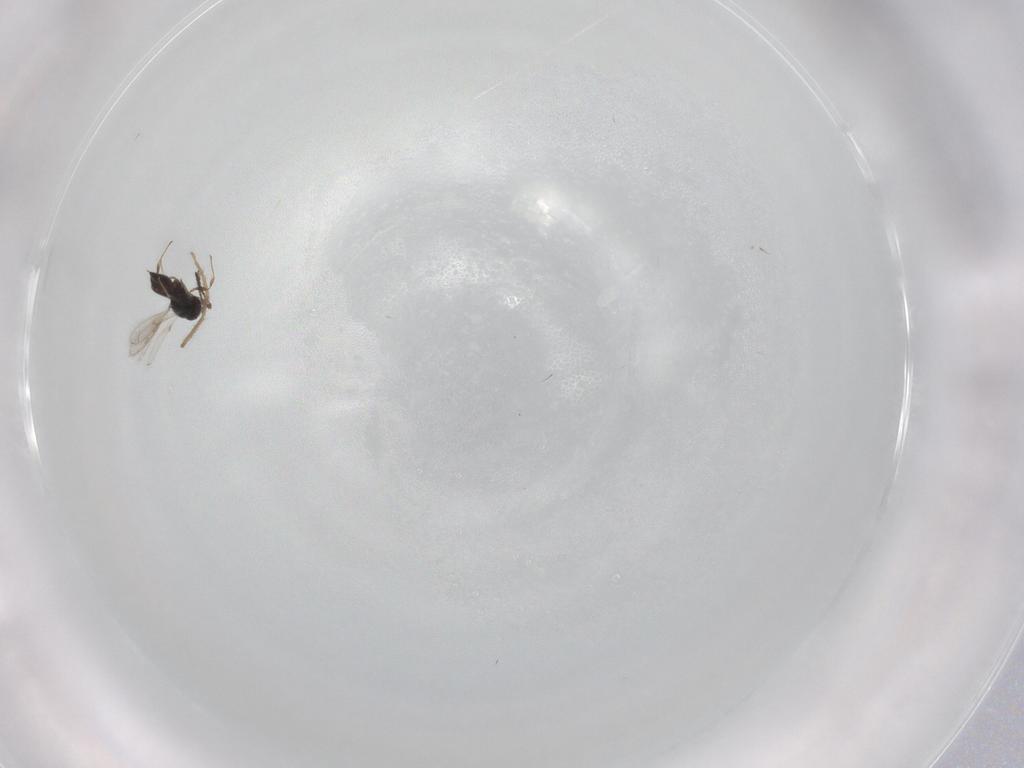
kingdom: Animalia
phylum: Arthropoda
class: Insecta
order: Hymenoptera
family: Scelionidae
